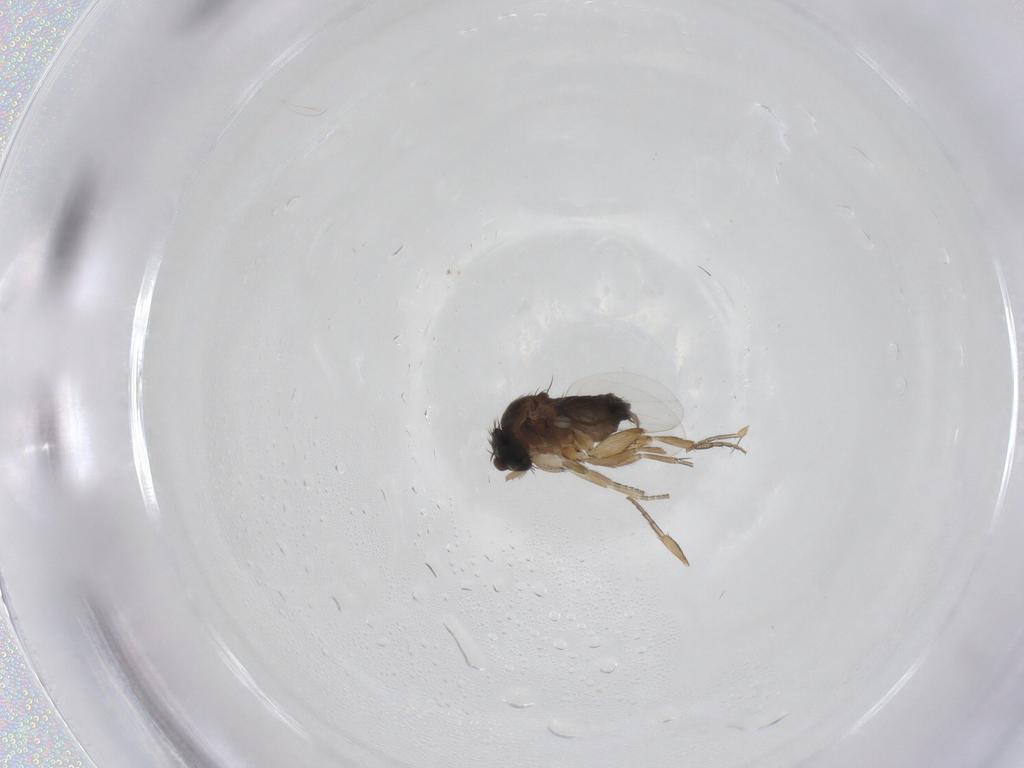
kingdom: Animalia
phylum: Arthropoda
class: Insecta
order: Diptera
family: Phoridae
